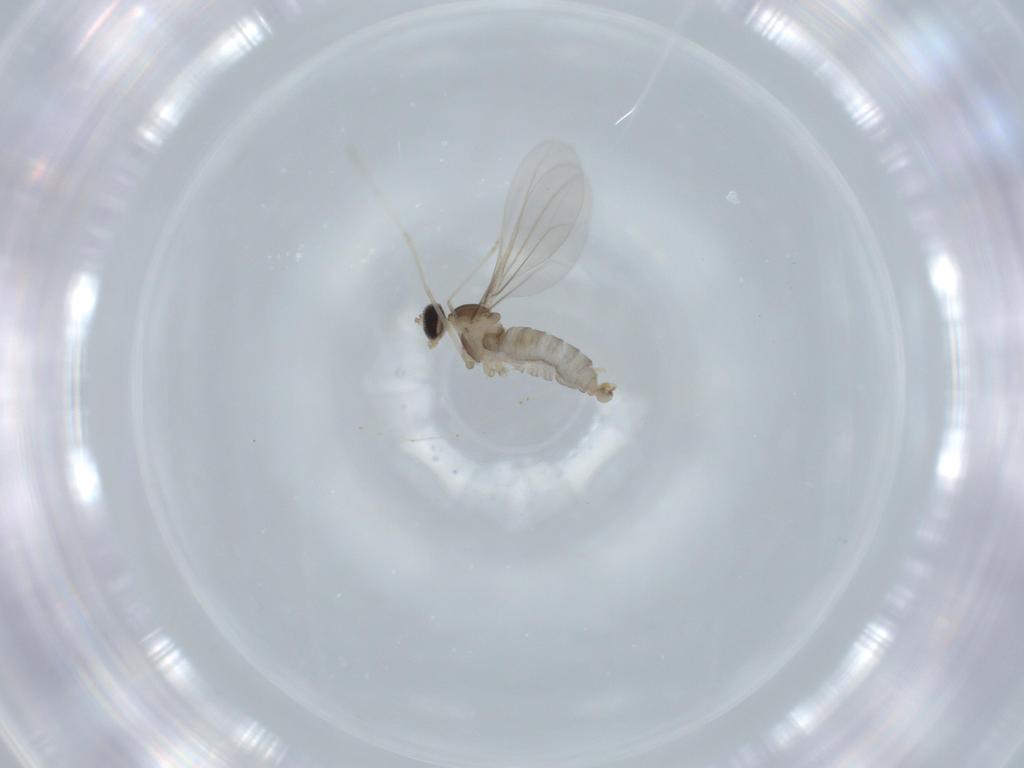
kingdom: Animalia
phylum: Arthropoda
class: Insecta
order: Diptera
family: Cecidomyiidae
